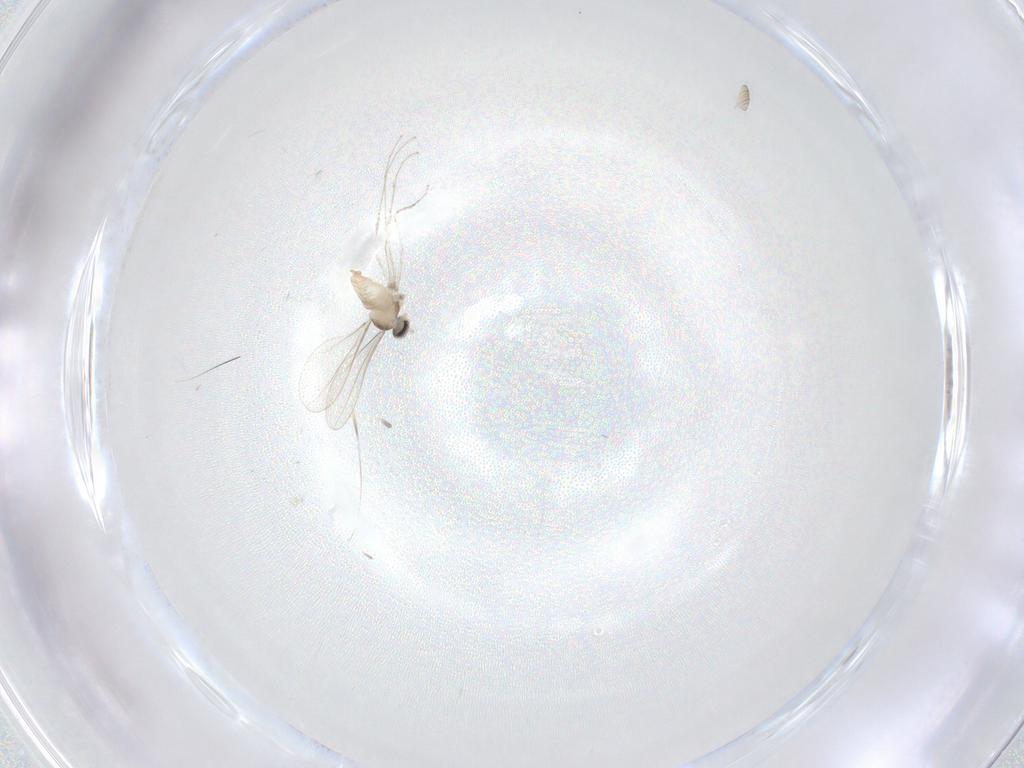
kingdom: Animalia
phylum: Arthropoda
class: Insecta
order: Diptera
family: Cecidomyiidae
